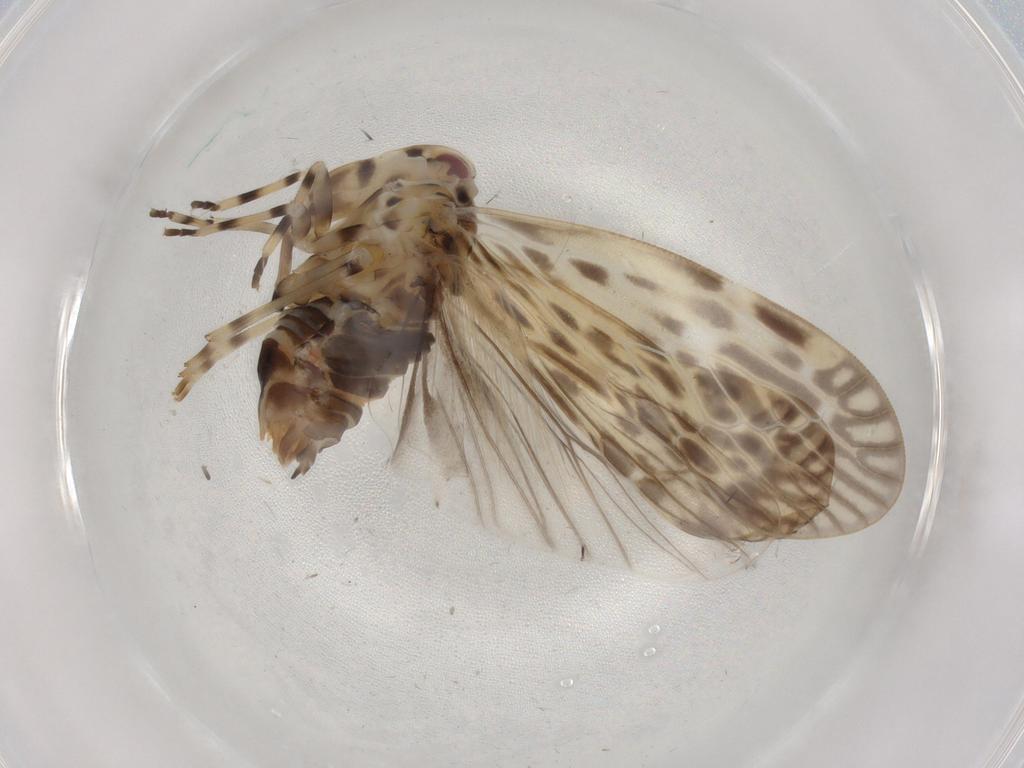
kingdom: Animalia
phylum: Arthropoda
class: Insecta
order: Hemiptera
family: Derbidae
